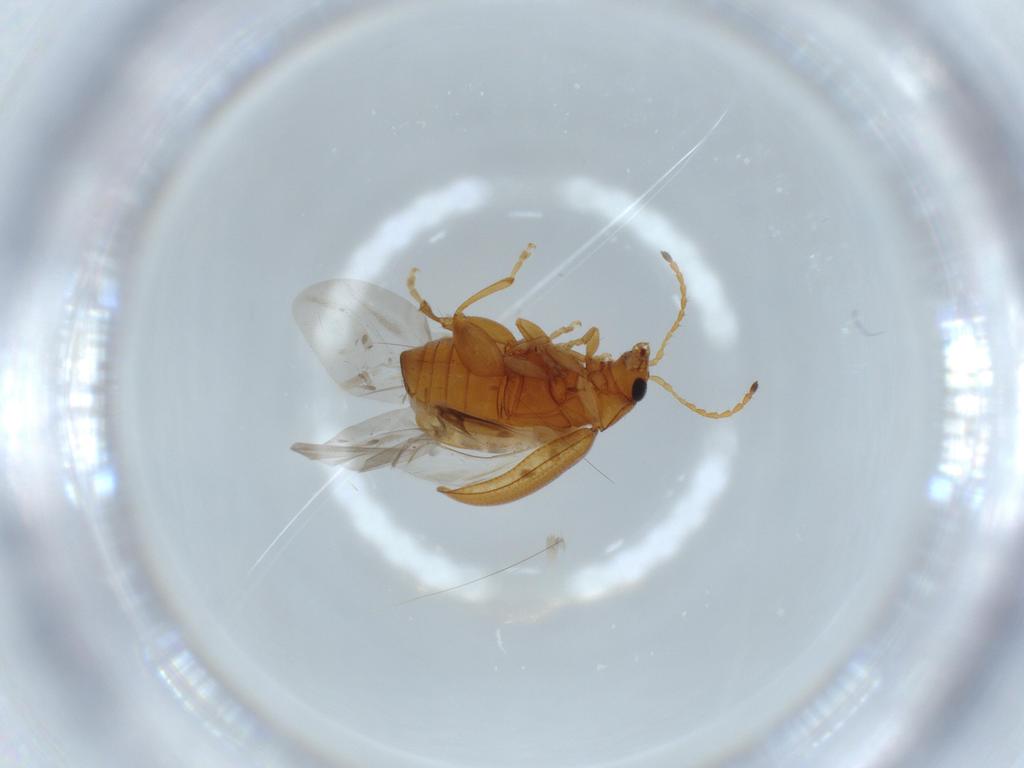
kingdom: Animalia
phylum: Arthropoda
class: Insecta
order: Coleoptera
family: Chrysomelidae
